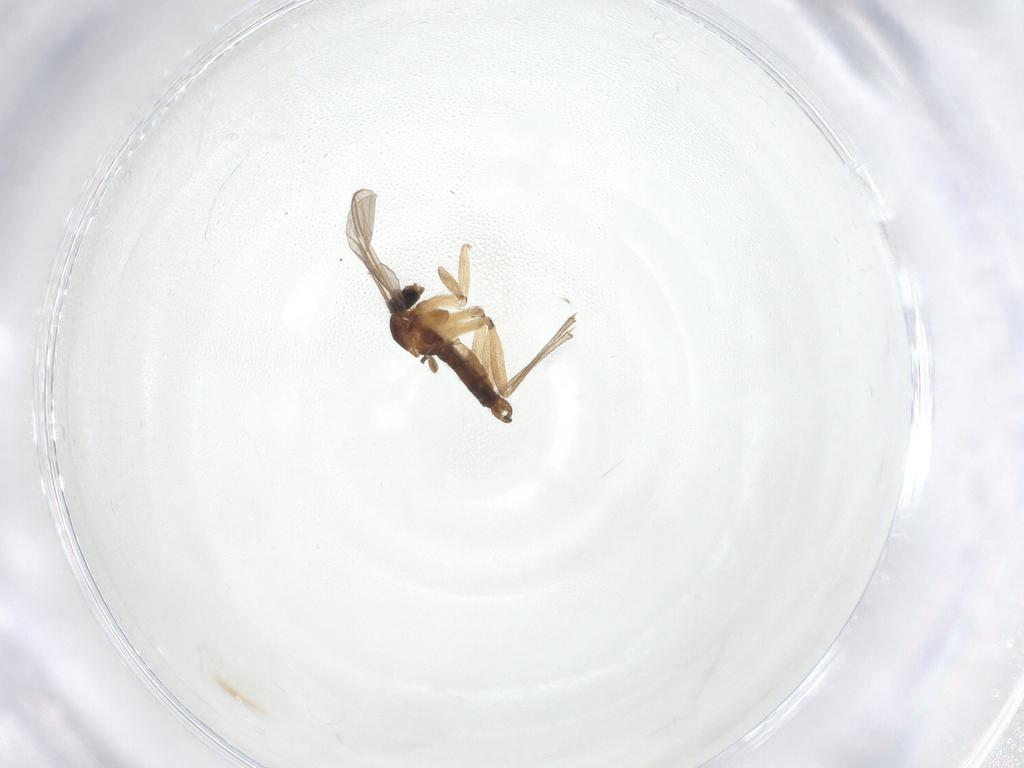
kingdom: Animalia
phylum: Arthropoda
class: Insecta
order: Diptera
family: Sciaridae
